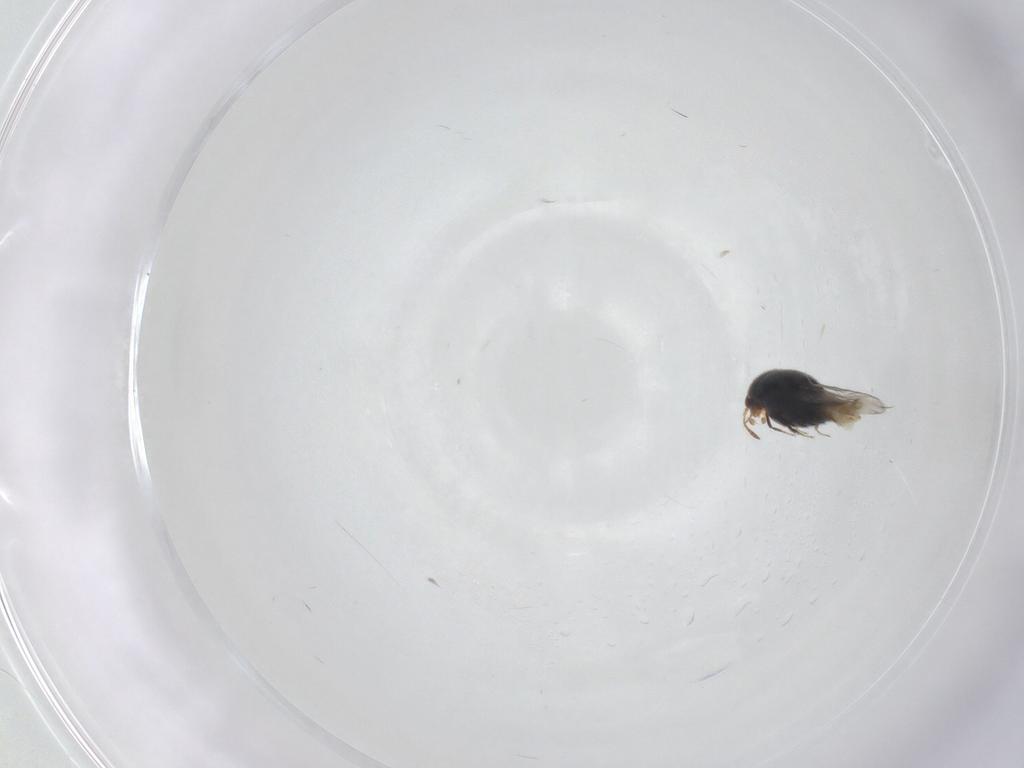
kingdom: Animalia
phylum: Arthropoda
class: Insecta
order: Coleoptera
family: Staphylinidae
